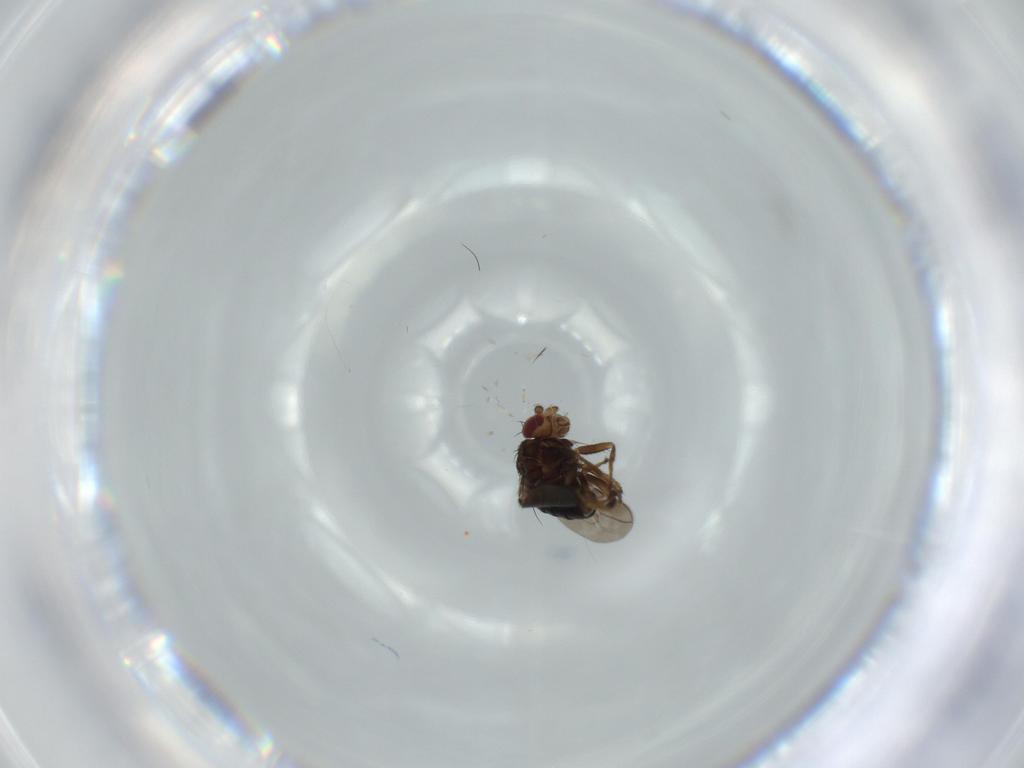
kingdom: Animalia
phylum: Arthropoda
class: Insecta
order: Diptera
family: Sphaeroceridae
